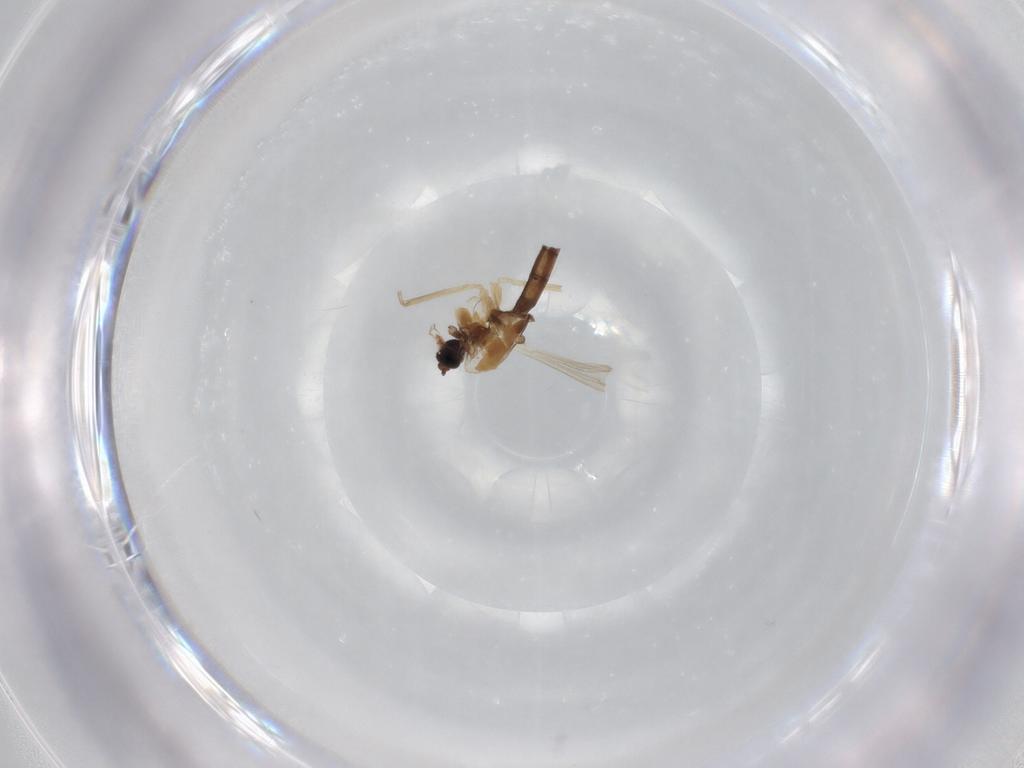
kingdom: Animalia
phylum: Arthropoda
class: Insecta
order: Diptera
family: Chironomidae
